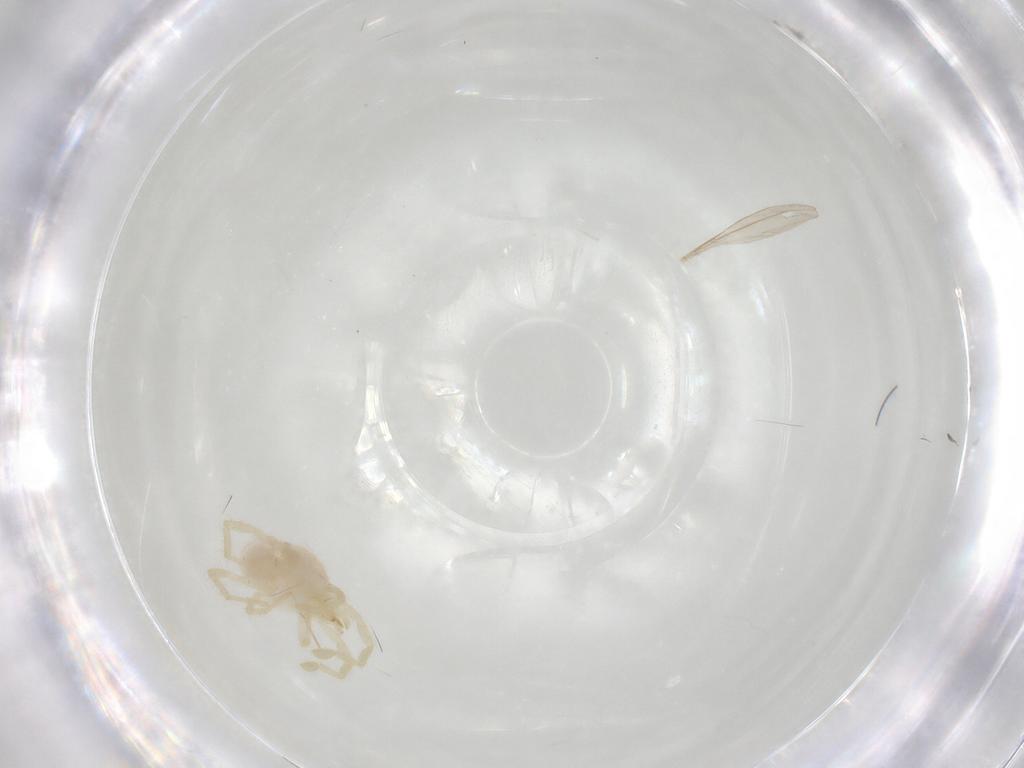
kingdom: Animalia
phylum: Arthropoda
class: Arachnida
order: Trombidiformes
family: Erythraeidae
